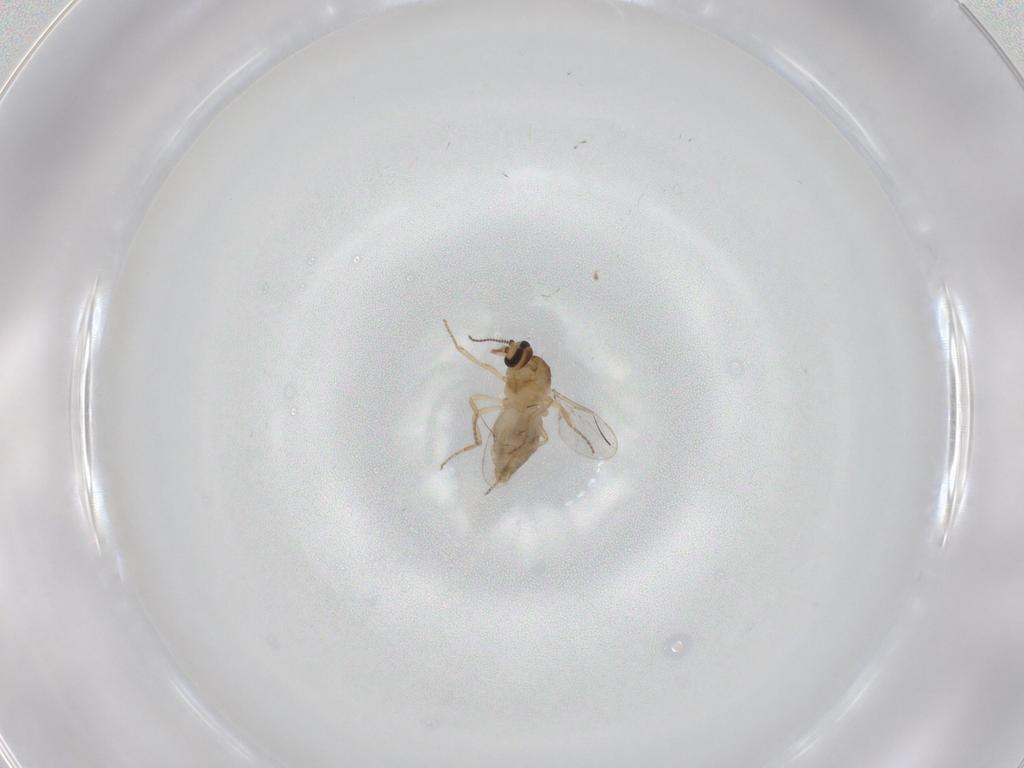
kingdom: Animalia
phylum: Arthropoda
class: Insecta
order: Diptera
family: Ceratopogonidae
